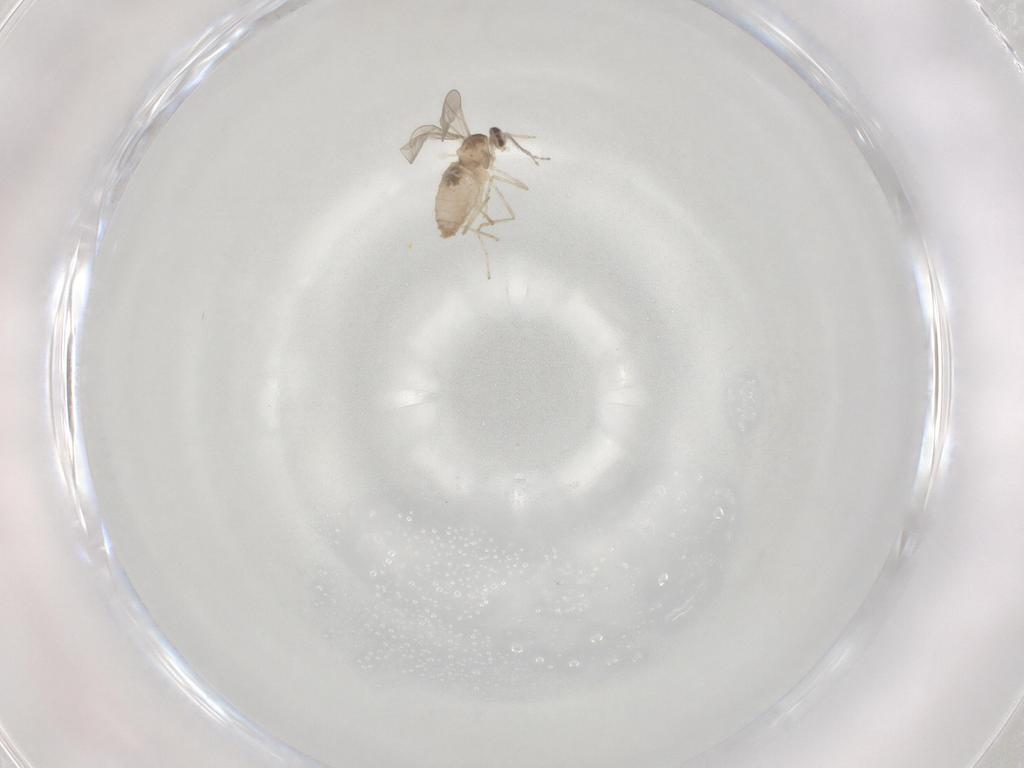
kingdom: Animalia
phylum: Arthropoda
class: Insecta
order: Diptera
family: Cecidomyiidae
